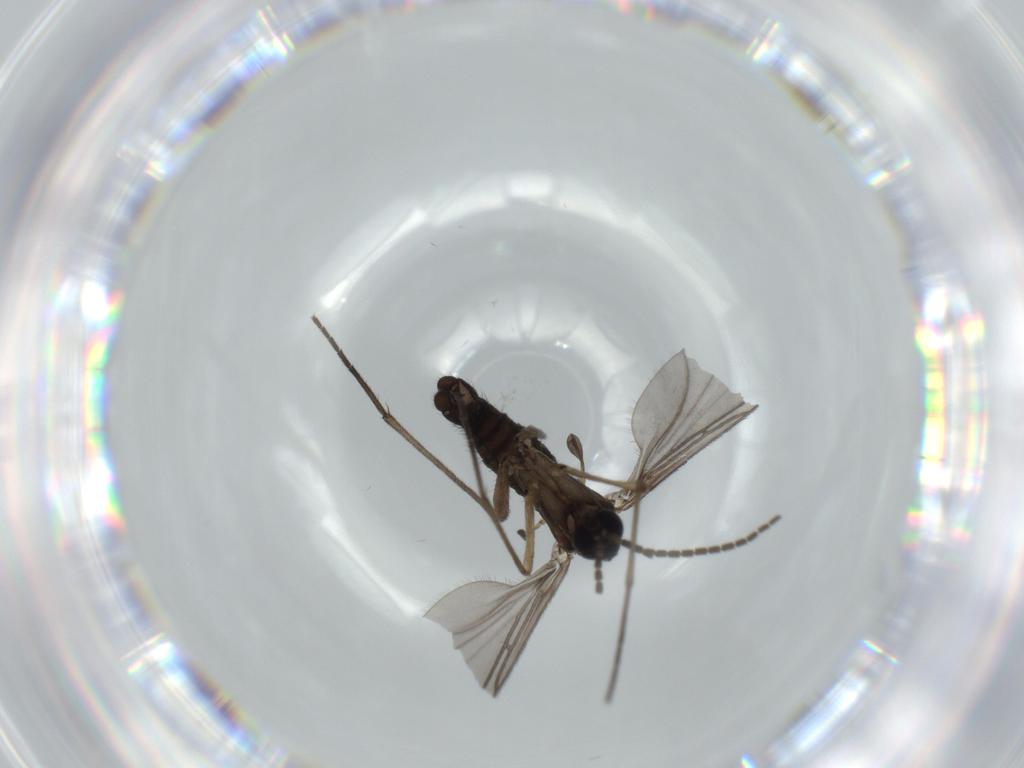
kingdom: Animalia
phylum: Arthropoda
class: Insecta
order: Diptera
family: Sciaridae
